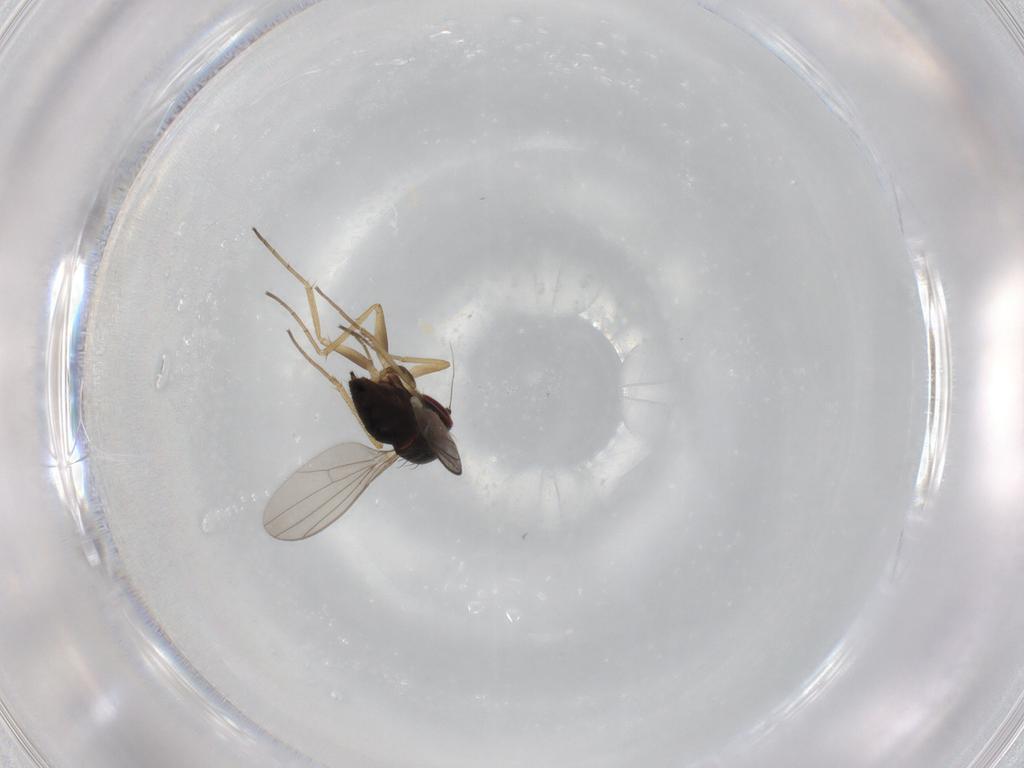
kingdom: Animalia
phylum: Arthropoda
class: Insecta
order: Diptera
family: Dolichopodidae
